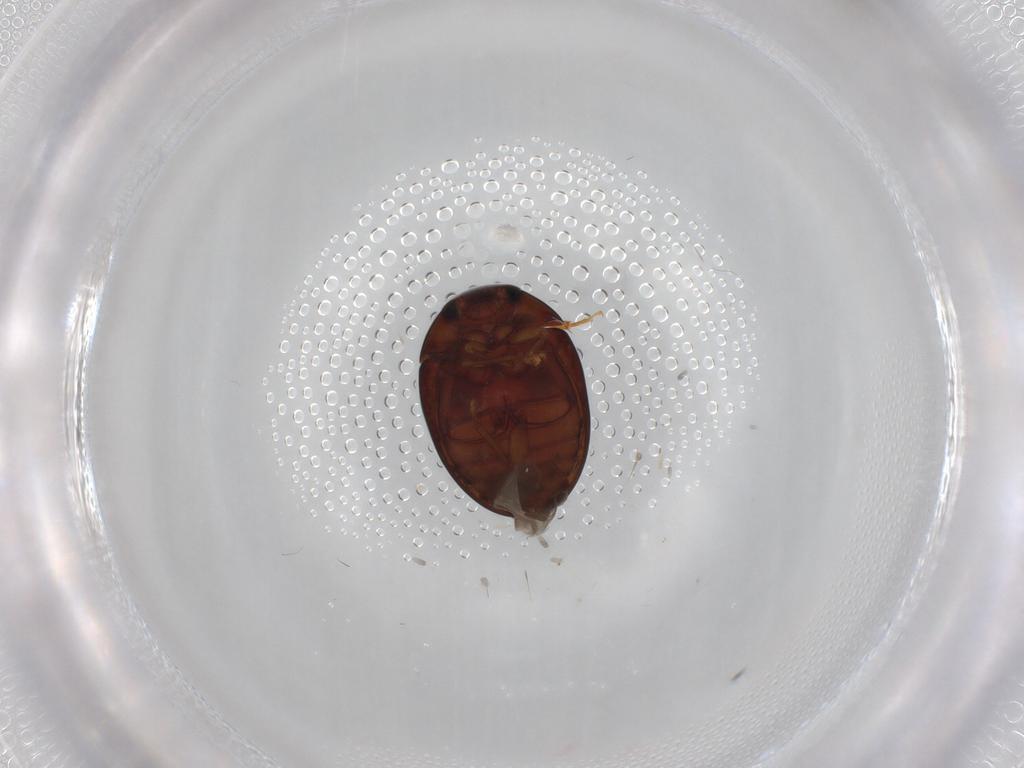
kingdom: Animalia
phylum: Arthropoda
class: Insecta
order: Coleoptera
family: Phalacridae
